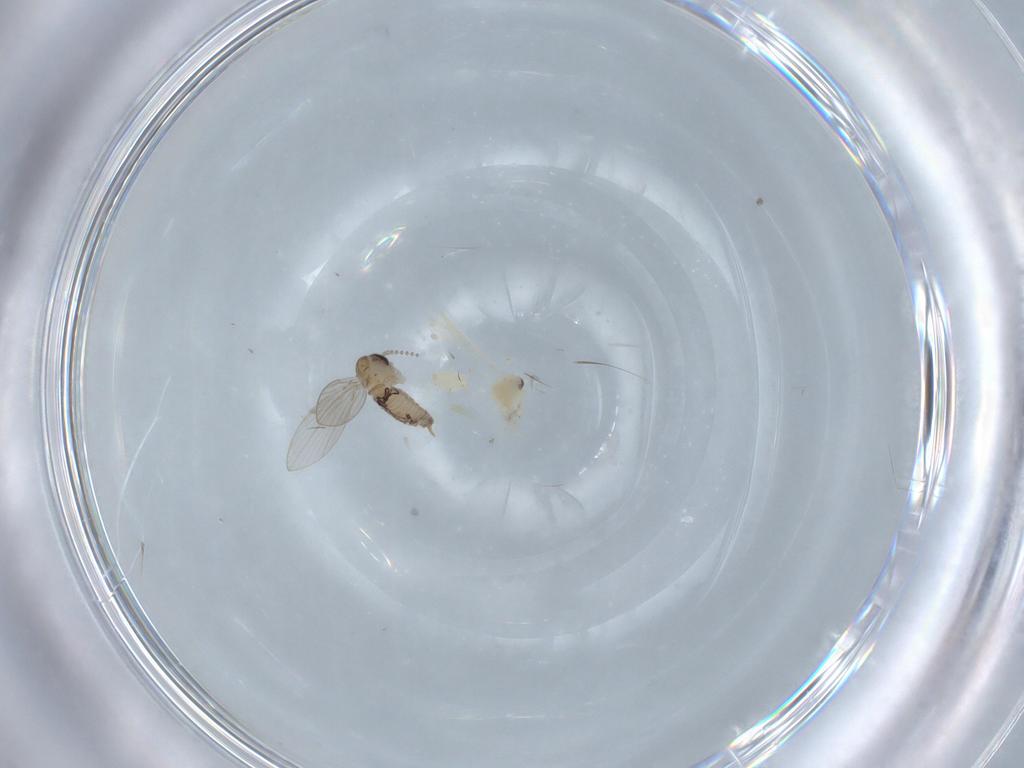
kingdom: Animalia
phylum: Arthropoda
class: Insecta
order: Diptera
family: Psychodidae
